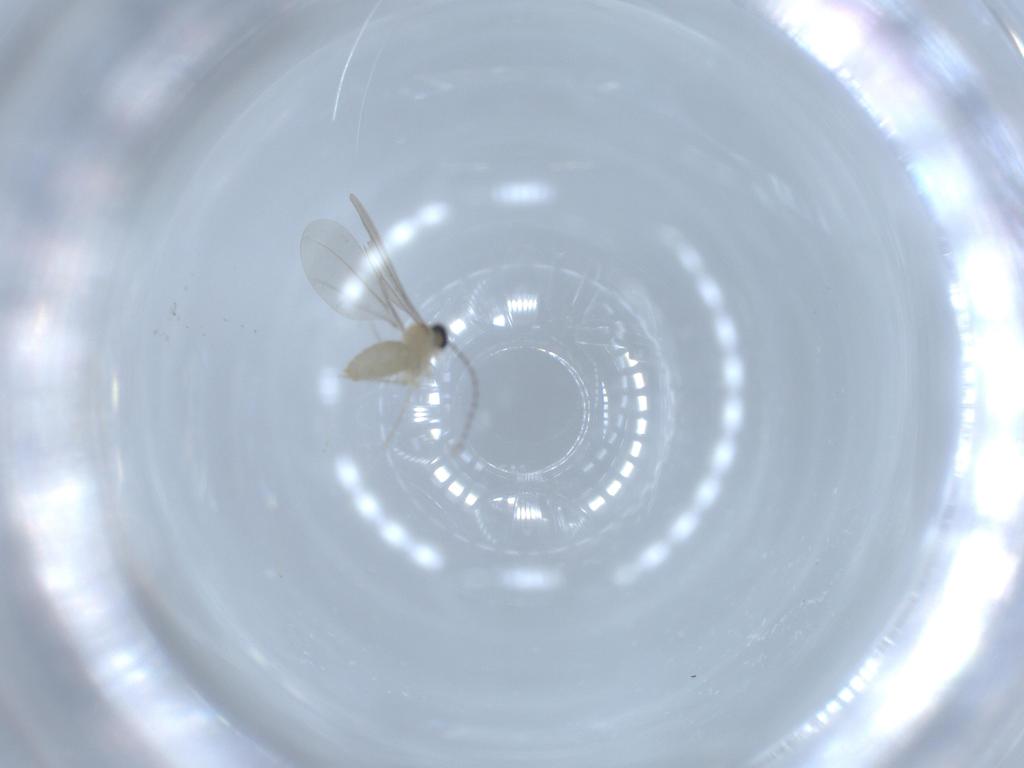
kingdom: Animalia
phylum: Arthropoda
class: Insecta
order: Diptera
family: Cecidomyiidae
